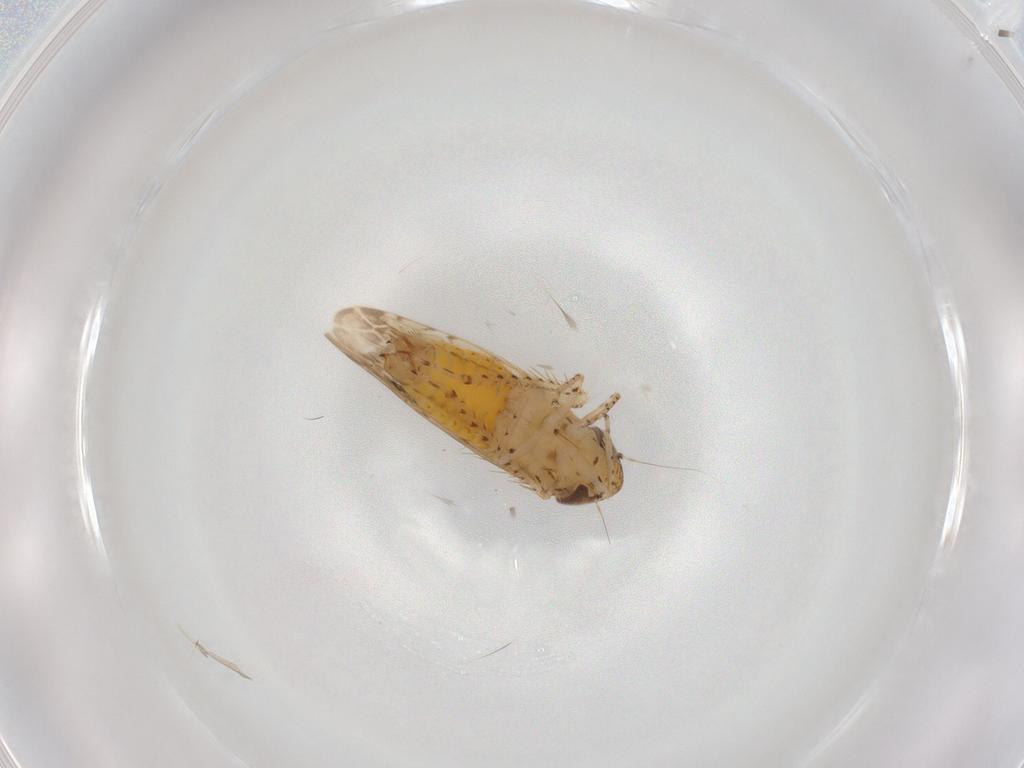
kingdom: Animalia
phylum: Arthropoda
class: Insecta
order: Hemiptera
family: Cicadellidae
